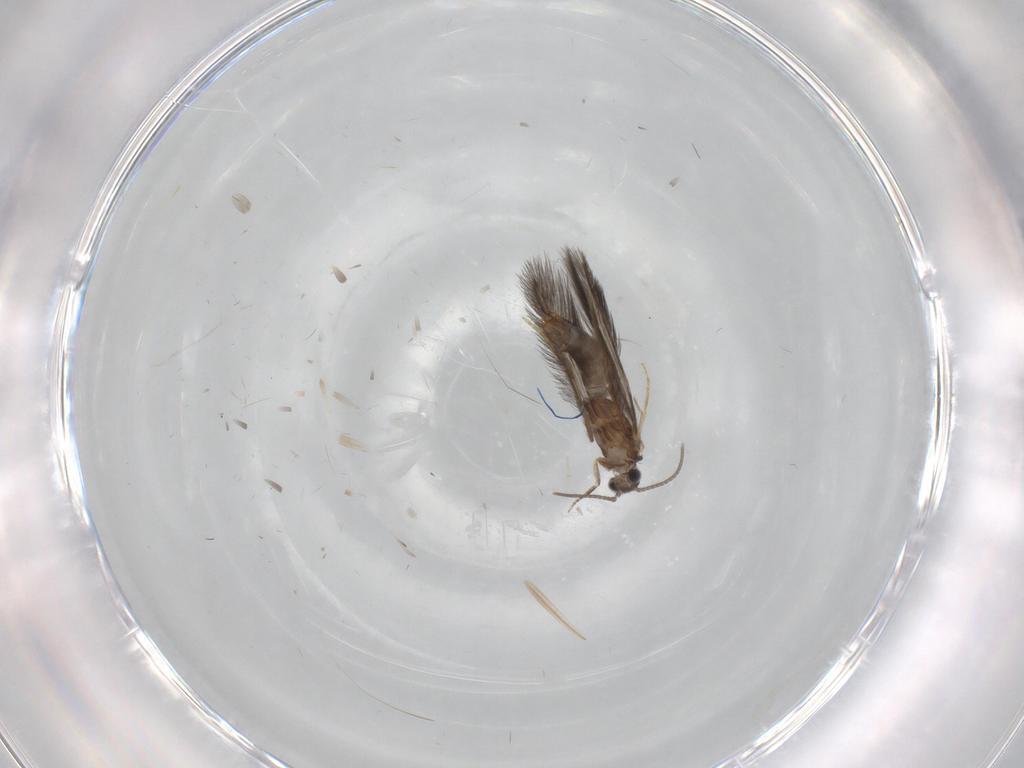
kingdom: Animalia
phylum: Arthropoda
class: Insecta
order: Trichoptera
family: Hydroptilidae
